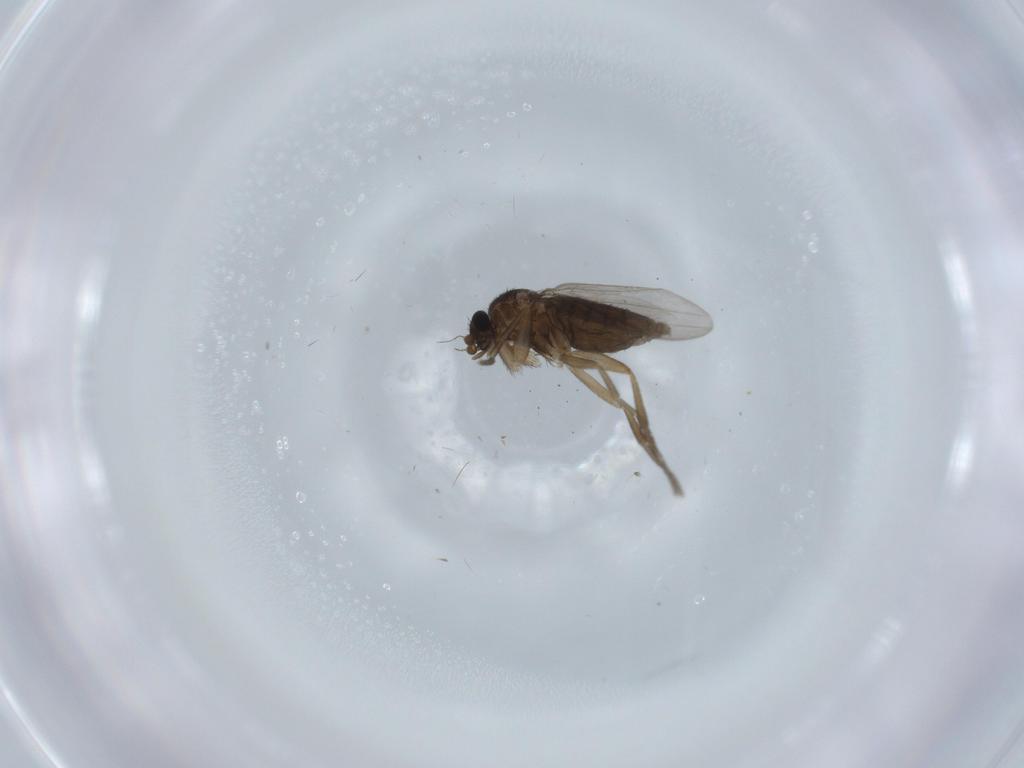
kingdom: Animalia
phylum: Arthropoda
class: Insecta
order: Diptera
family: Phoridae
